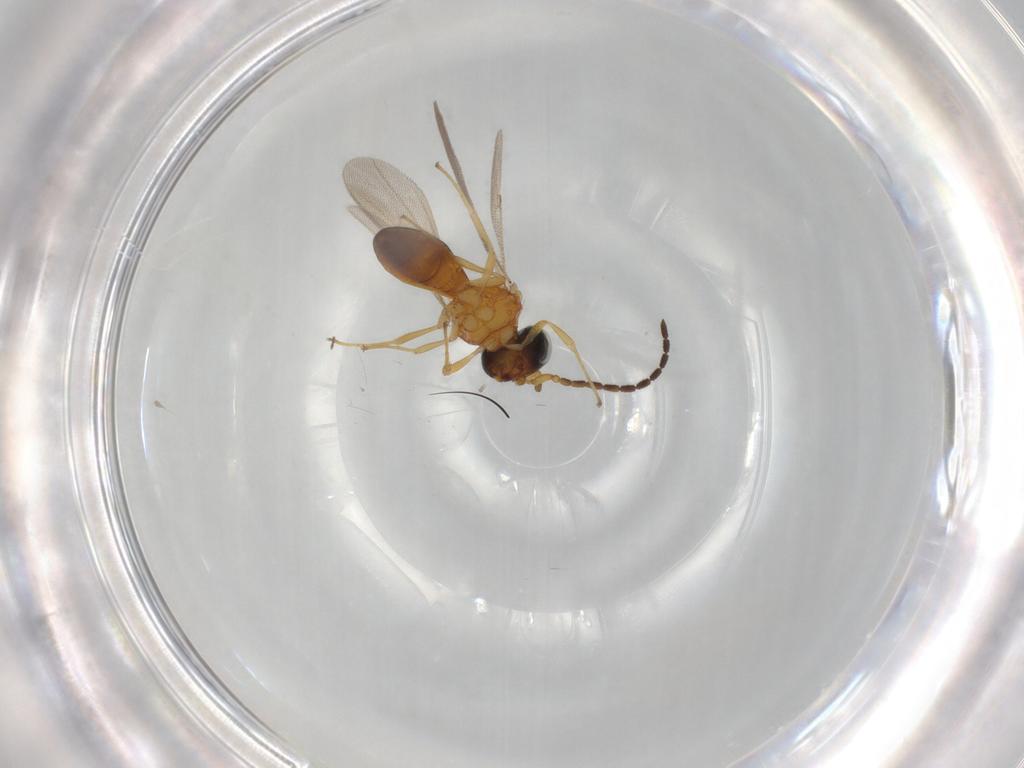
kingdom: Animalia
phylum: Arthropoda
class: Insecta
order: Hymenoptera
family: Scelionidae
